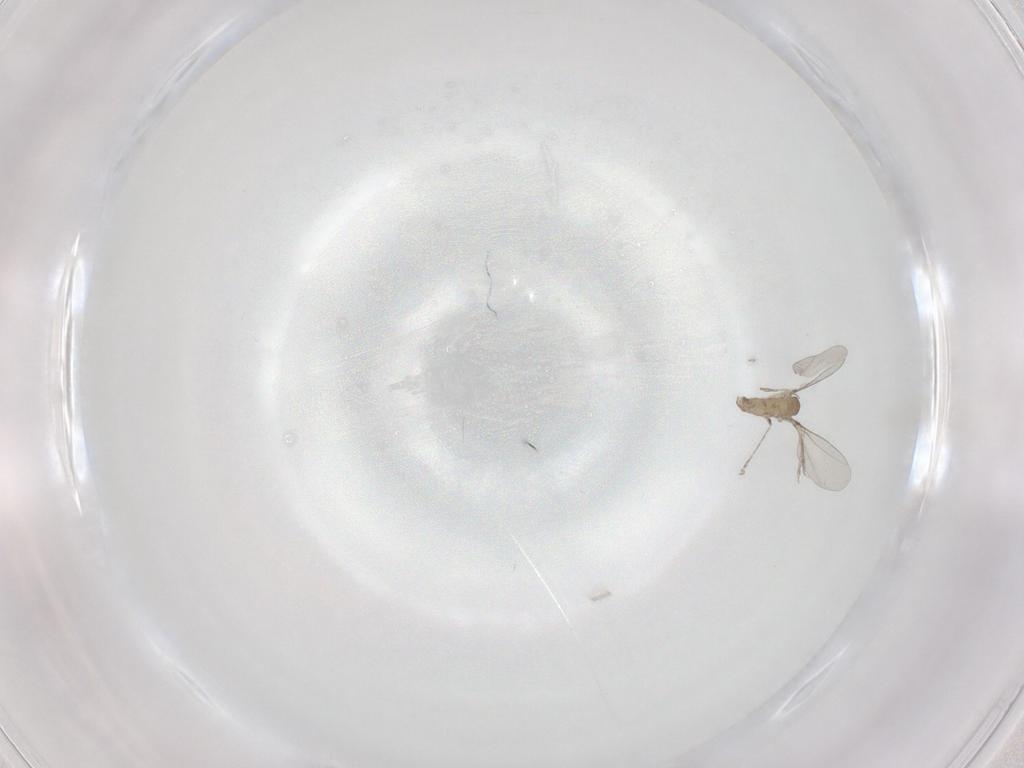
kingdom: Animalia
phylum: Arthropoda
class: Insecta
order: Diptera
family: Cecidomyiidae
